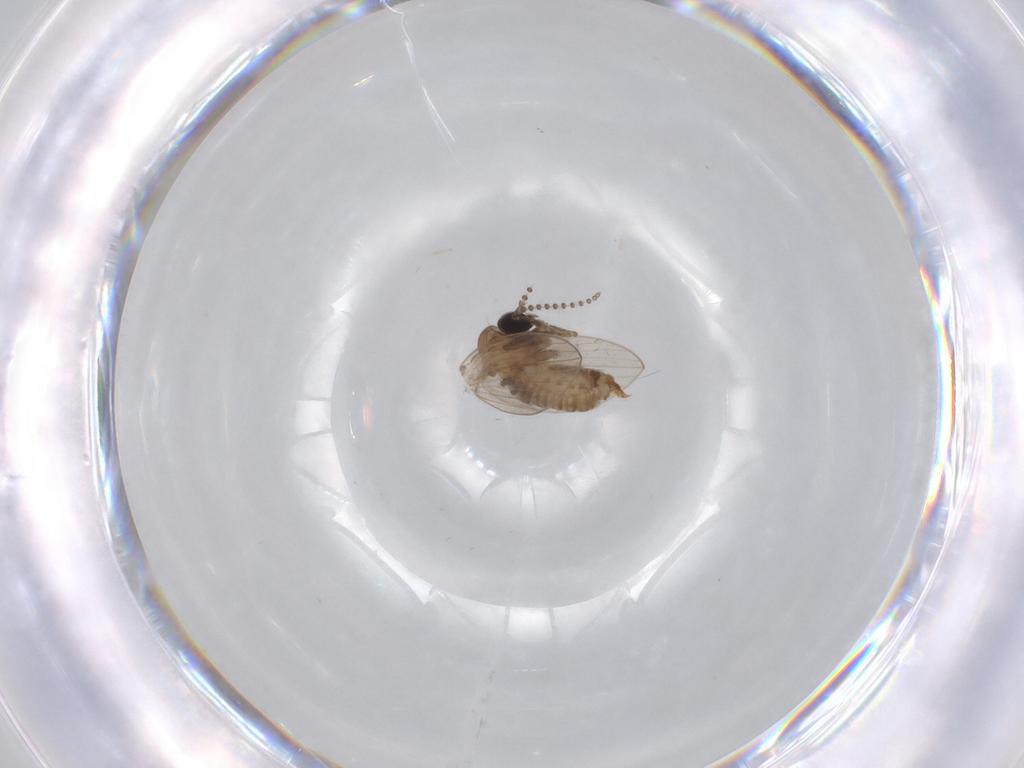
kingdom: Animalia
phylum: Arthropoda
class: Insecta
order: Diptera
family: Psychodidae
